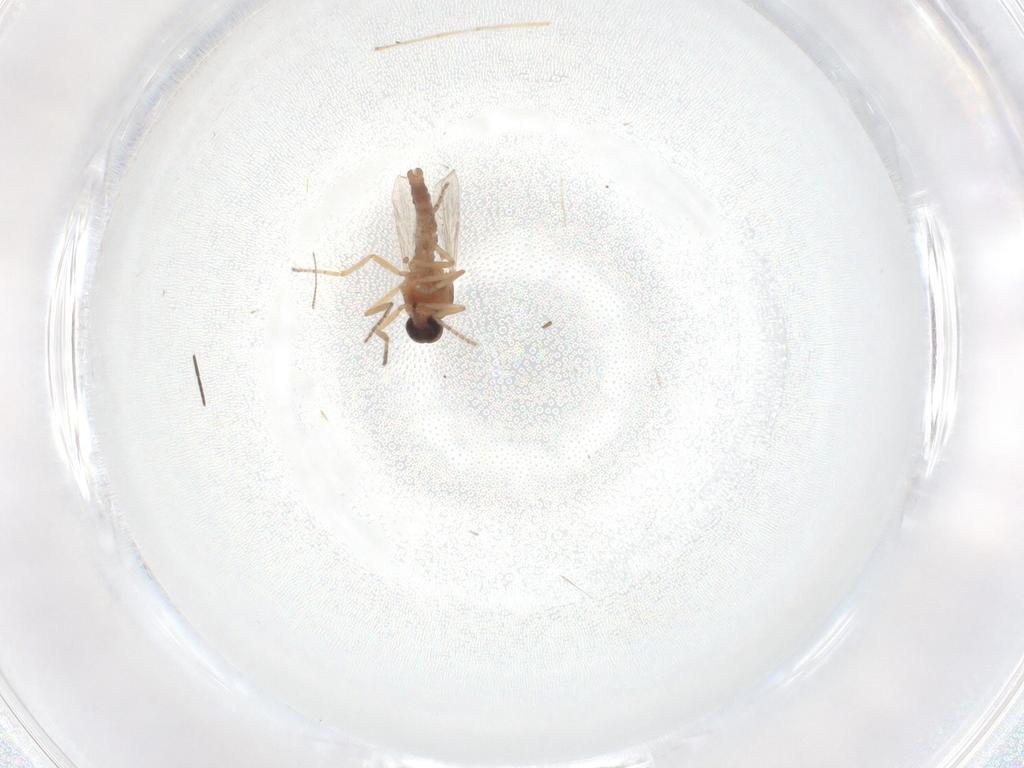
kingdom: Animalia
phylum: Arthropoda
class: Insecta
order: Diptera
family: Ceratopogonidae
